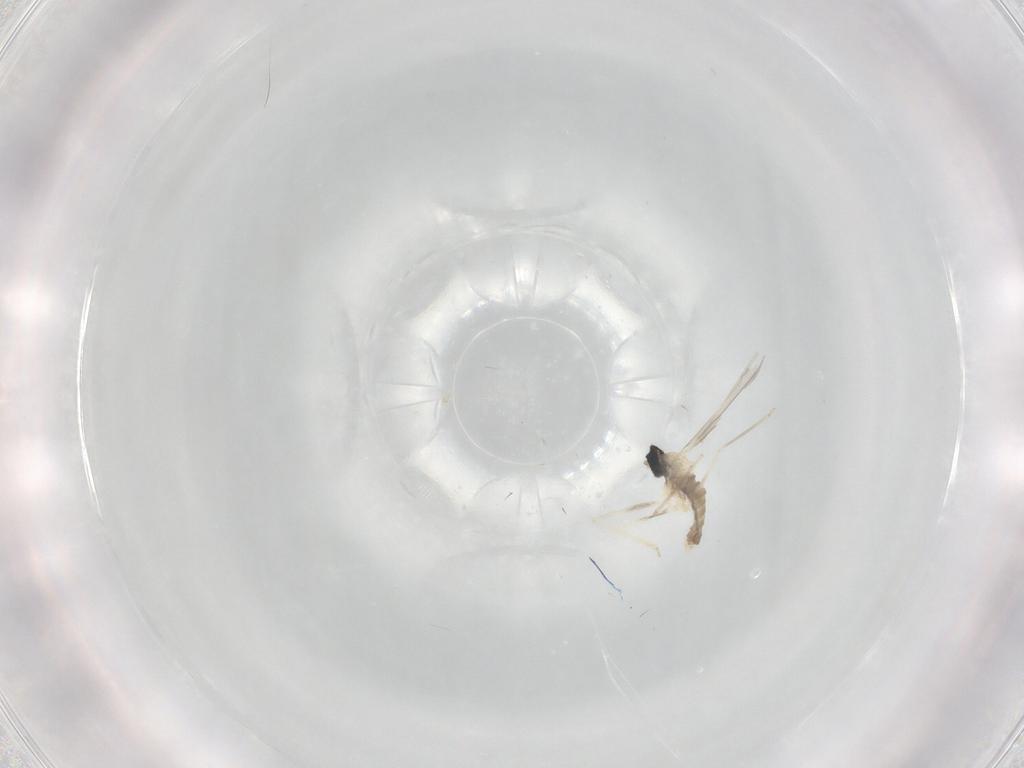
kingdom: Animalia
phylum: Arthropoda
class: Insecta
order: Diptera
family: Cecidomyiidae
